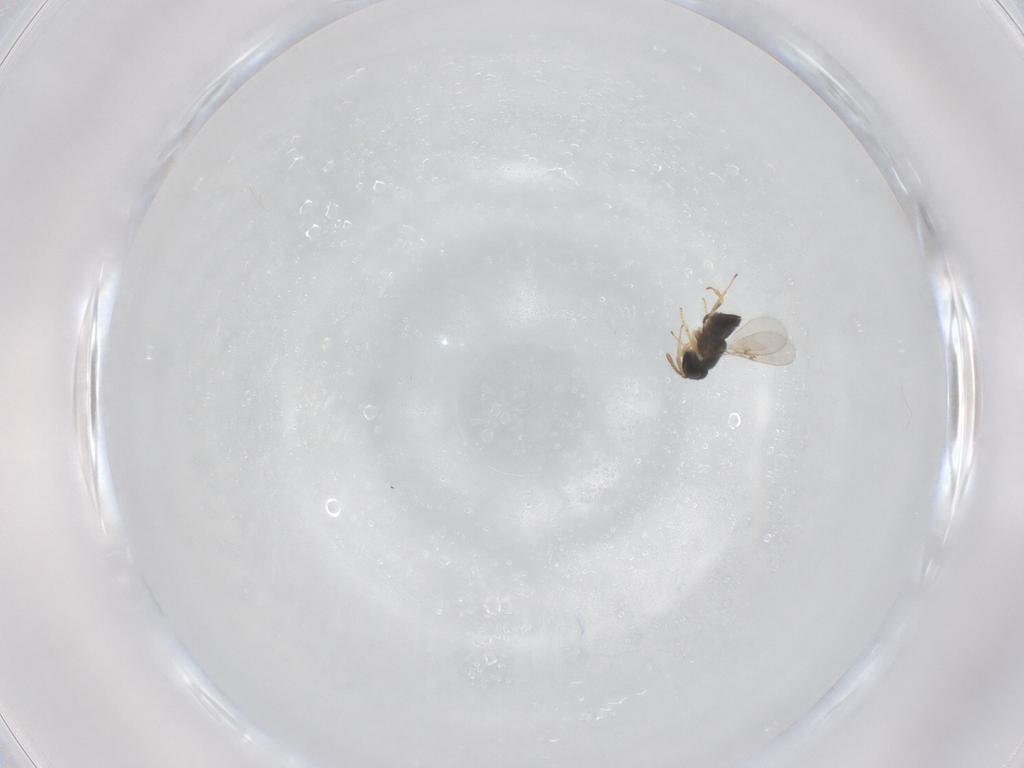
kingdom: Animalia
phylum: Arthropoda
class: Insecta
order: Hymenoptera
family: Encyrtidae
